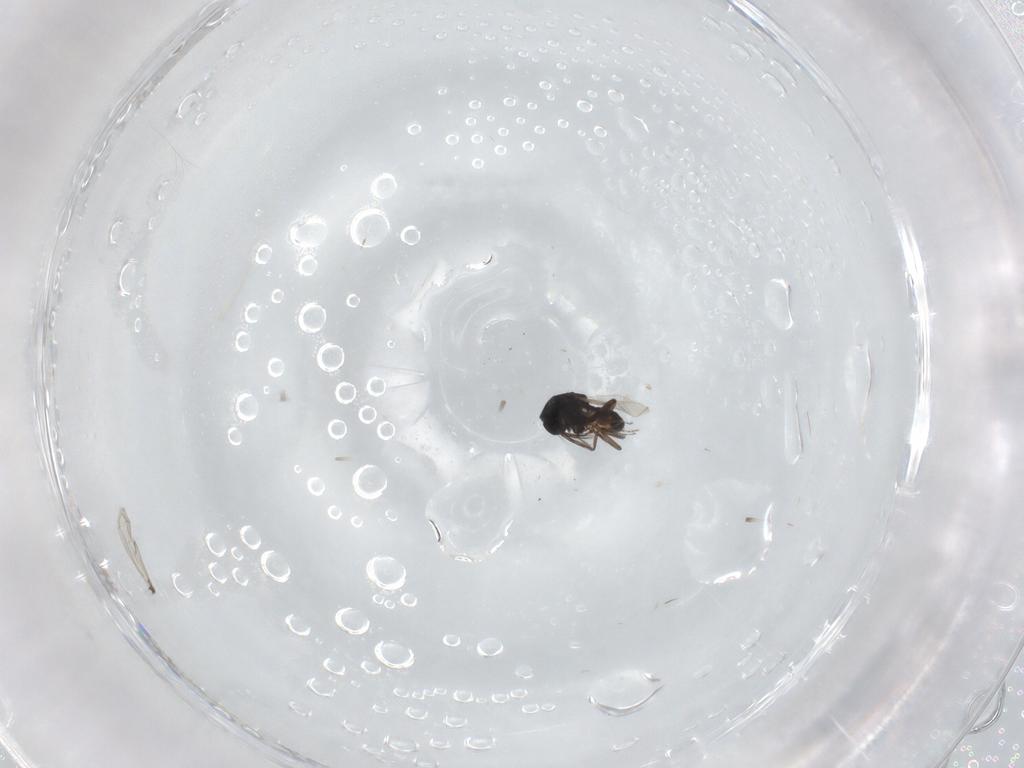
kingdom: Animalia
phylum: Arthropoda
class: Insecta
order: Diptera
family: Ceratopogonidae
